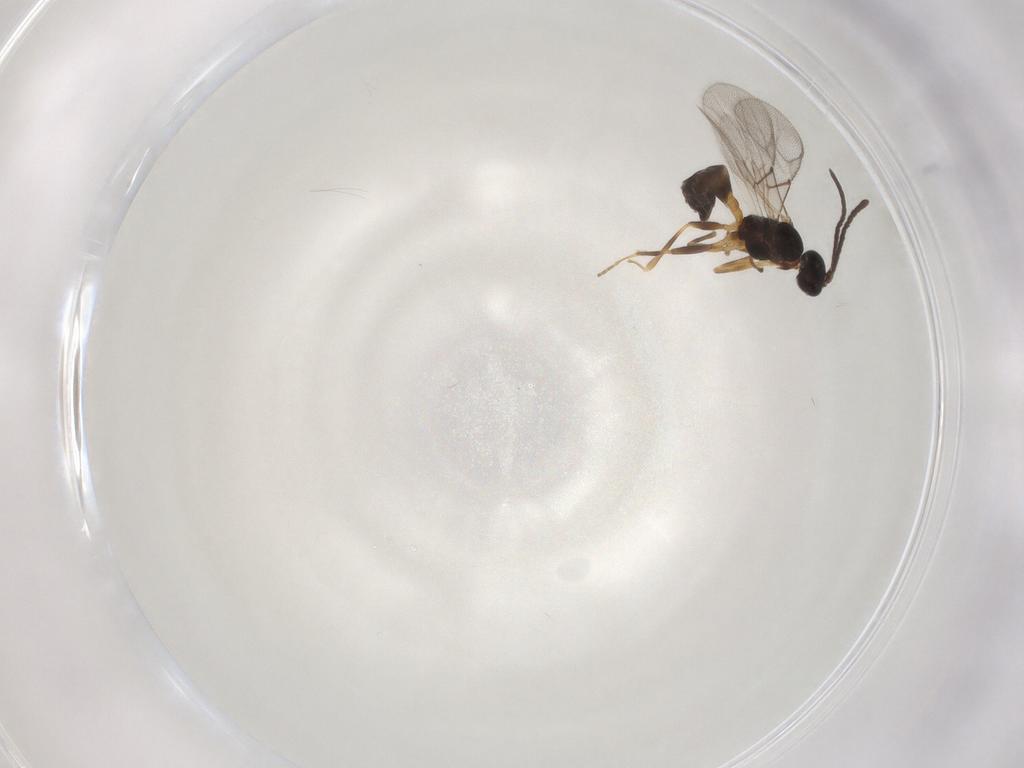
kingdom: Animalia
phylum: Arthropoda
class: Insecta
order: Hymenoptera
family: Braconidae
